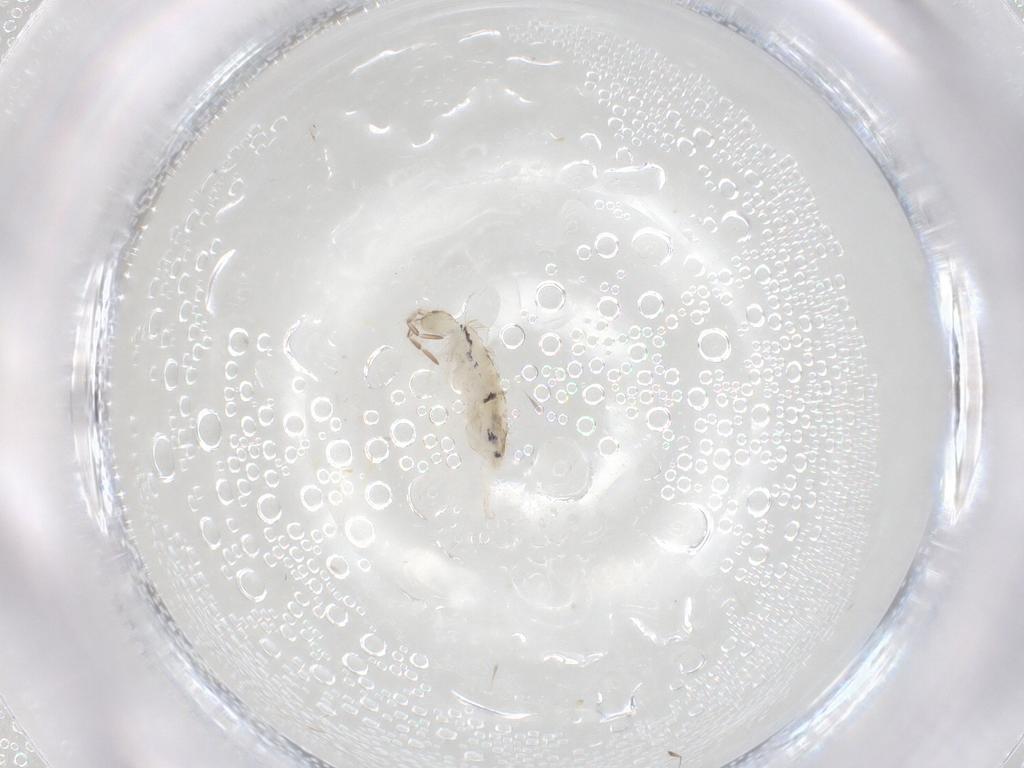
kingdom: Animalia
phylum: Arthropoda
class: Collembola
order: Entomobryomorpha
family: Entomobryidae
